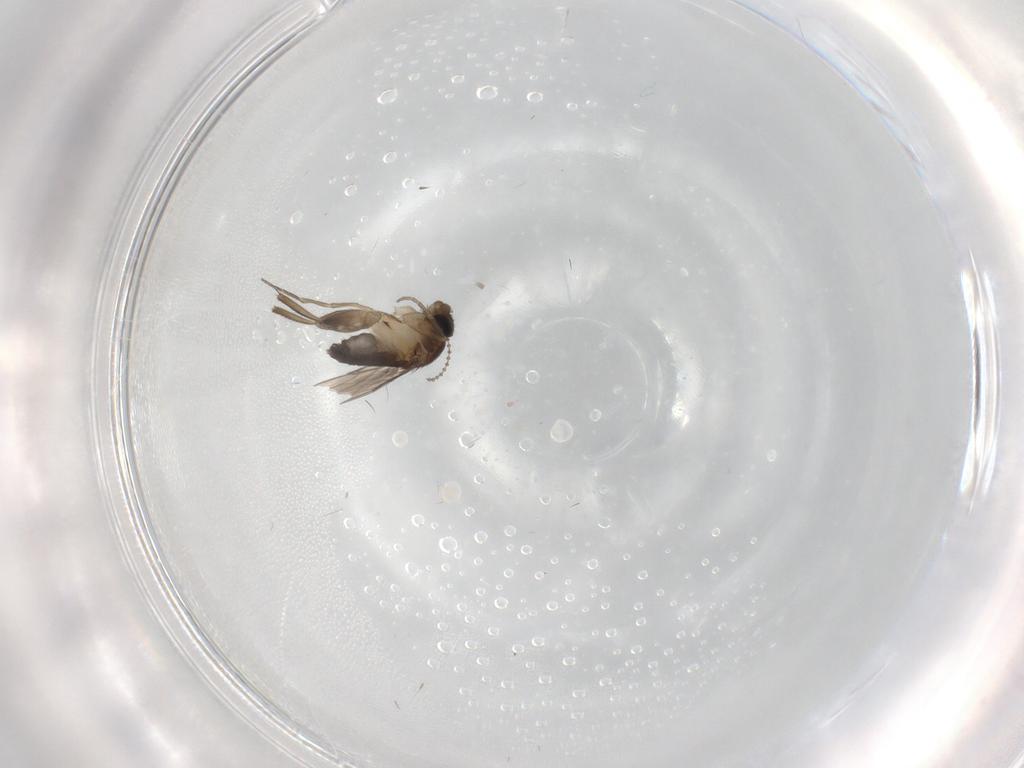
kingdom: Animalia
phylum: Arthropoda
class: Insecta
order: Diptera
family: Phoridae
